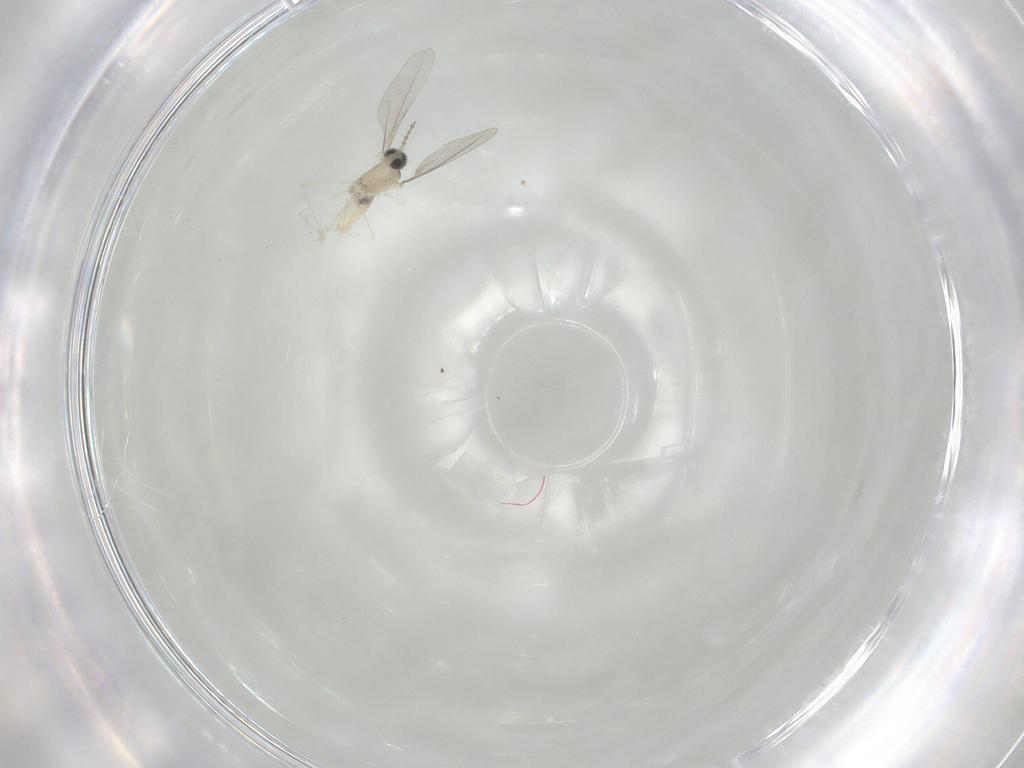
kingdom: Animalia
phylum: Arthropoda
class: Insecta
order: Diptera
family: Cecidomyiidae
